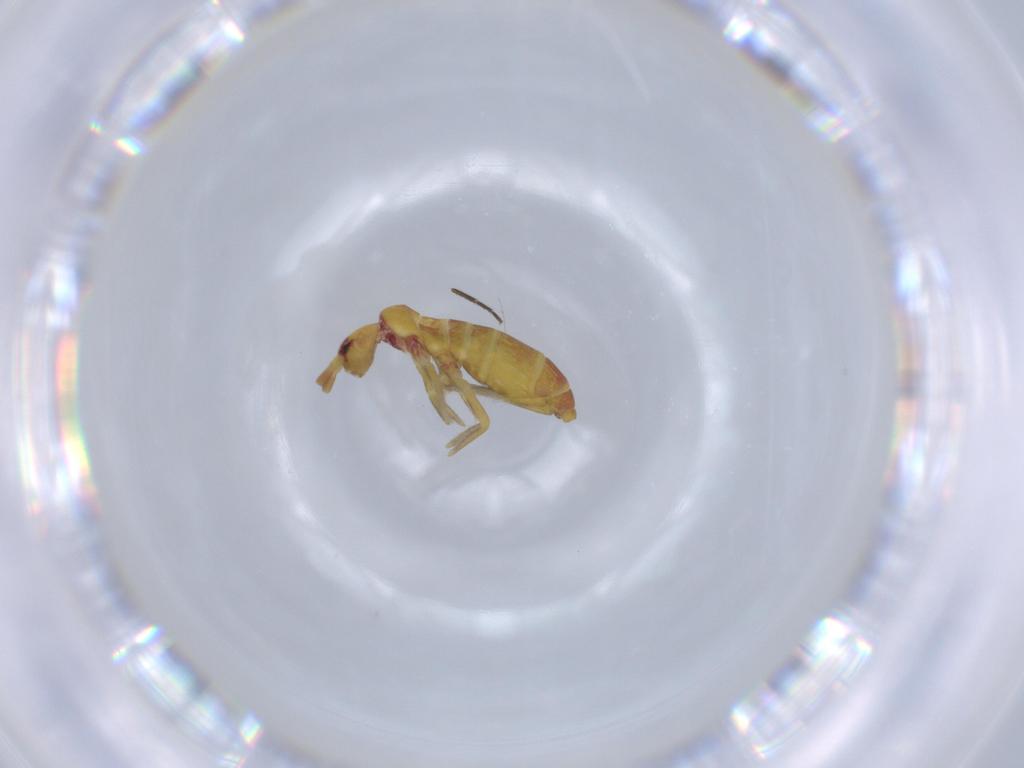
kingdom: Animalia
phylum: Arthropoda
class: Collembola
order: Entomobryomorpha
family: Tomoceridae
